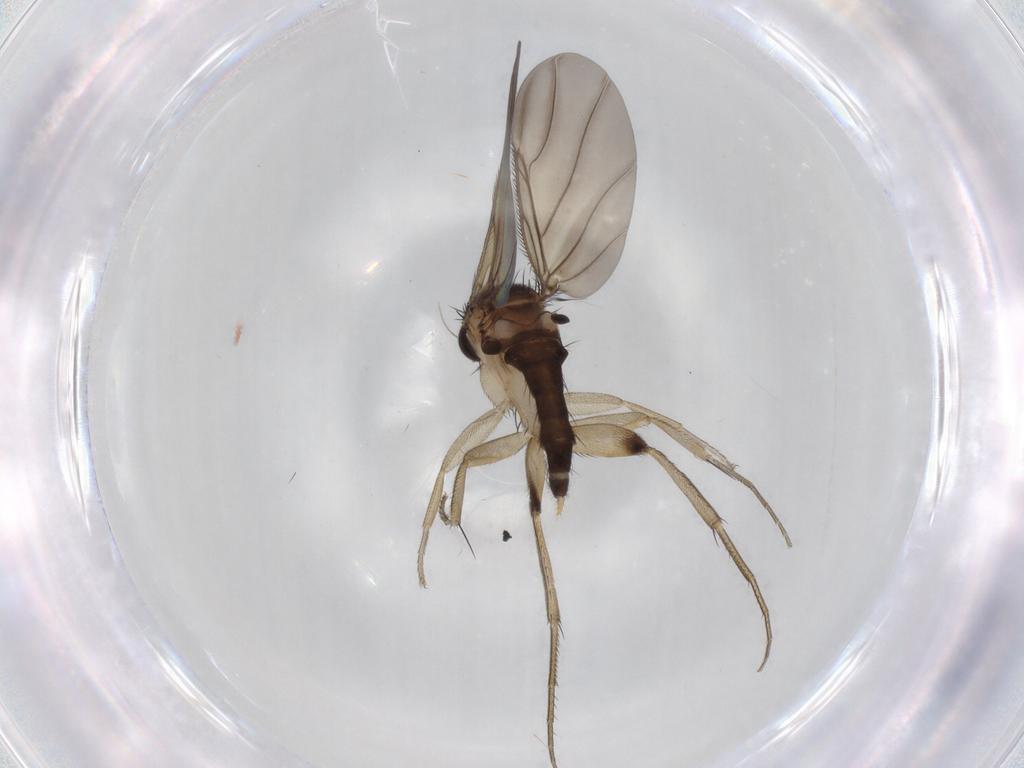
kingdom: Animalia
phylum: Arthropoda
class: Insecta
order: Diptera
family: Phoridae
